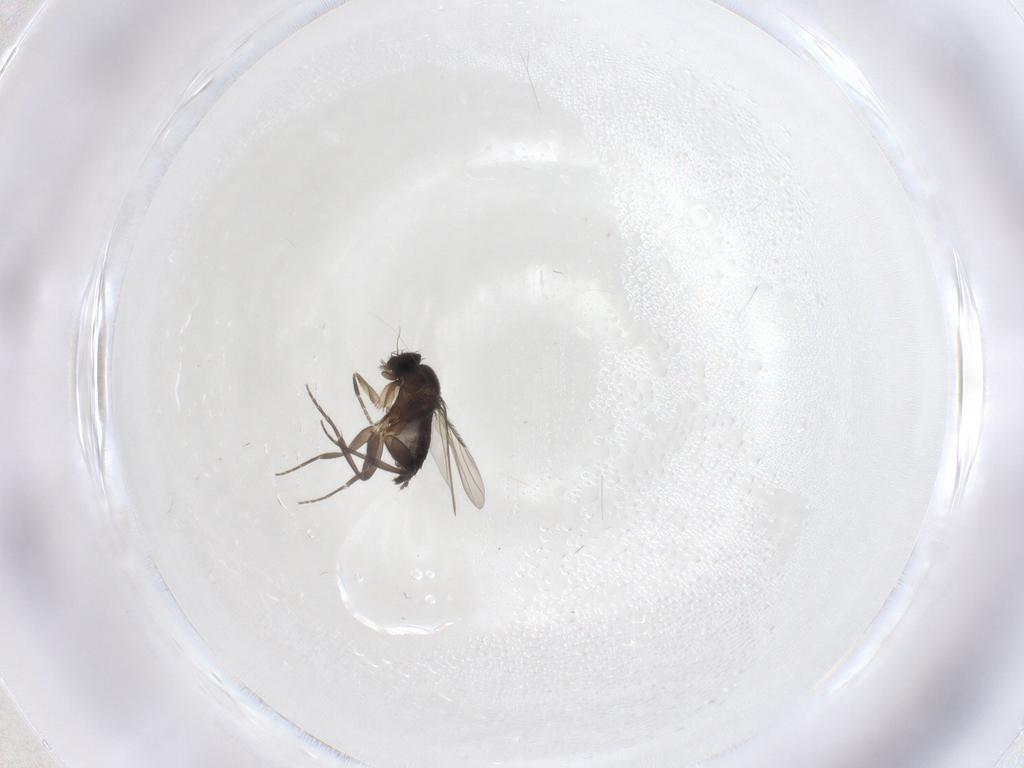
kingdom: Animalia
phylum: Arthropoda
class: Insecta
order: Diptera
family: Phoridae
